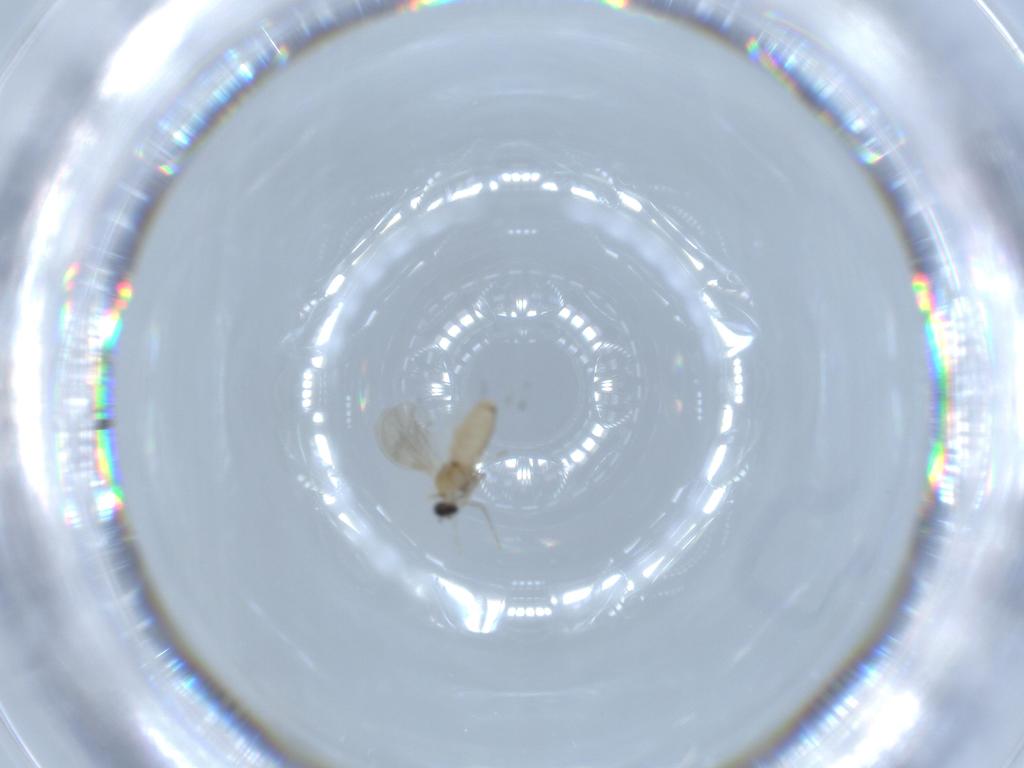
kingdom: Animalia
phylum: Arthropoda
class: Insecta
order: Diptera
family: Cecidomyiidae
